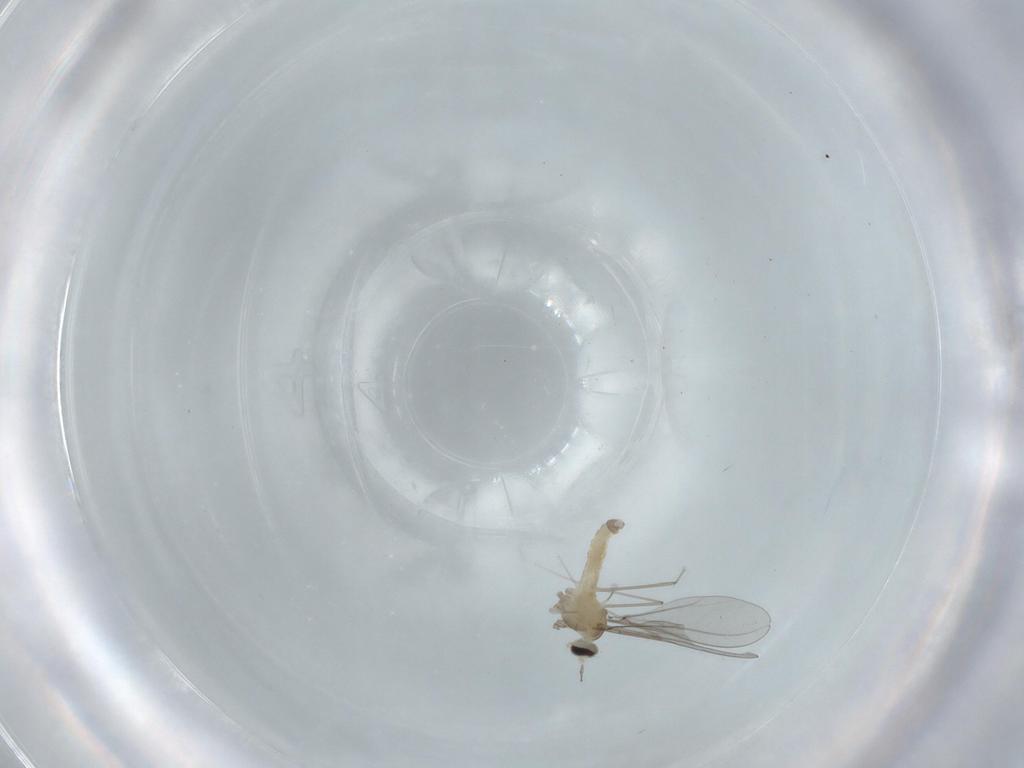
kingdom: Animalia
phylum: Arthropoda
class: Insecta
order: Diptera
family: Cecidomyiidae
